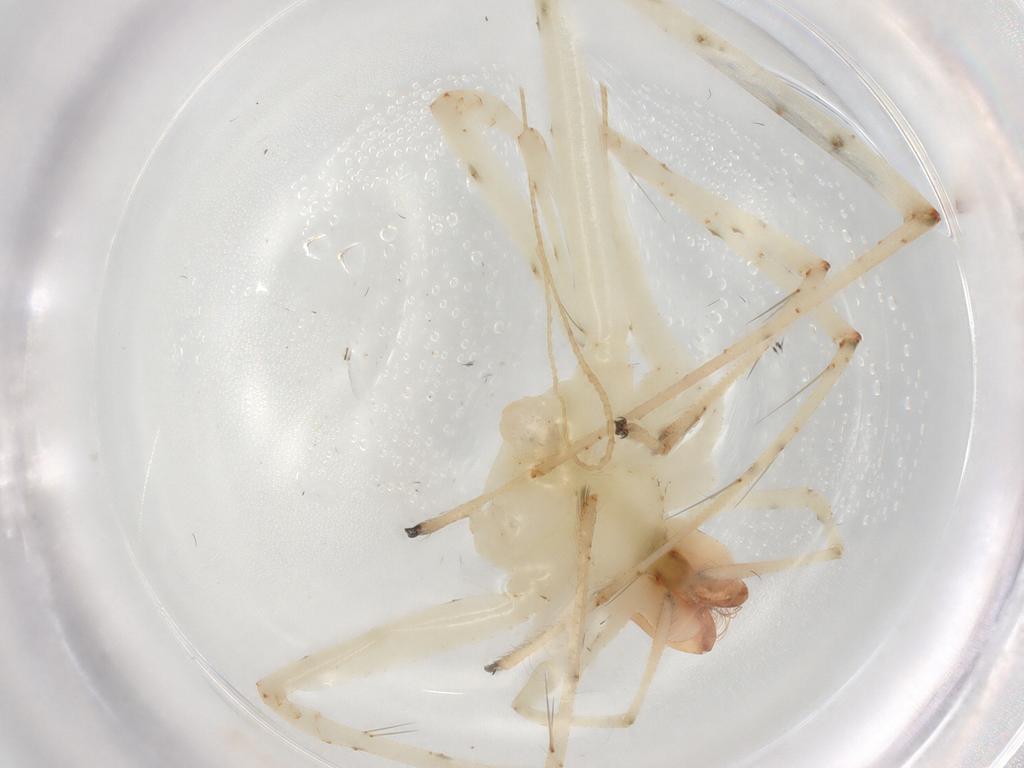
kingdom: Animalia
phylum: Arthropoda
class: Arachnida
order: Araneae
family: Anyphaenidae
